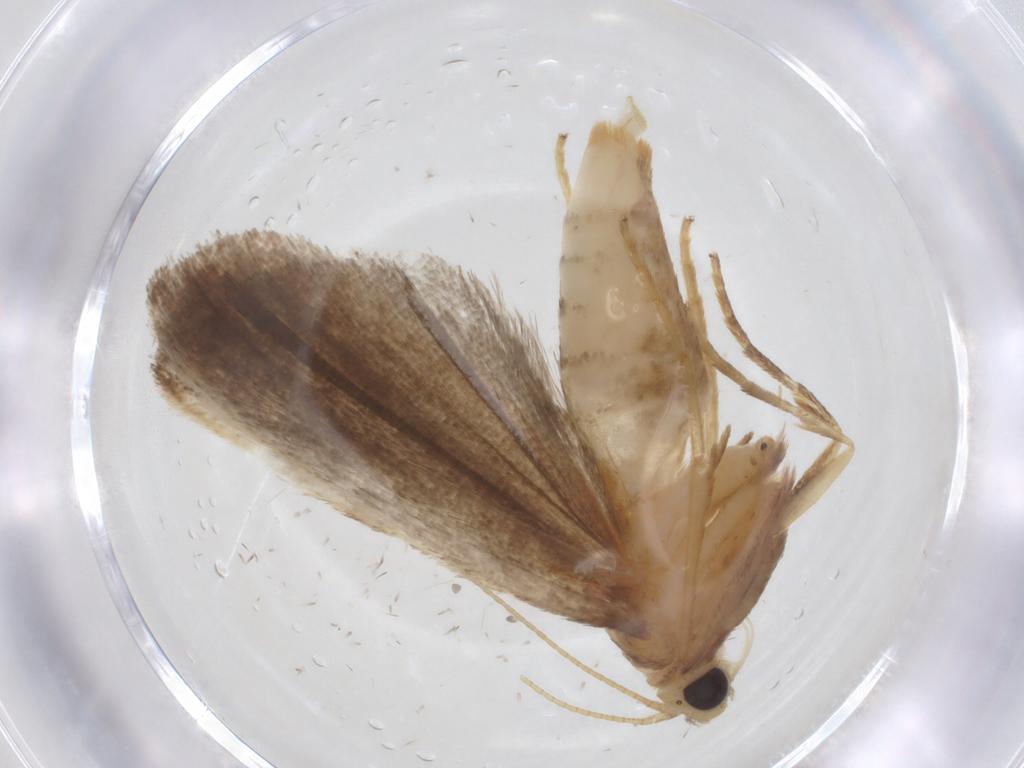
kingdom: Animalia
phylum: Arthropoda
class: Insecta
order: Lepidoptera
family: Pyralidae
